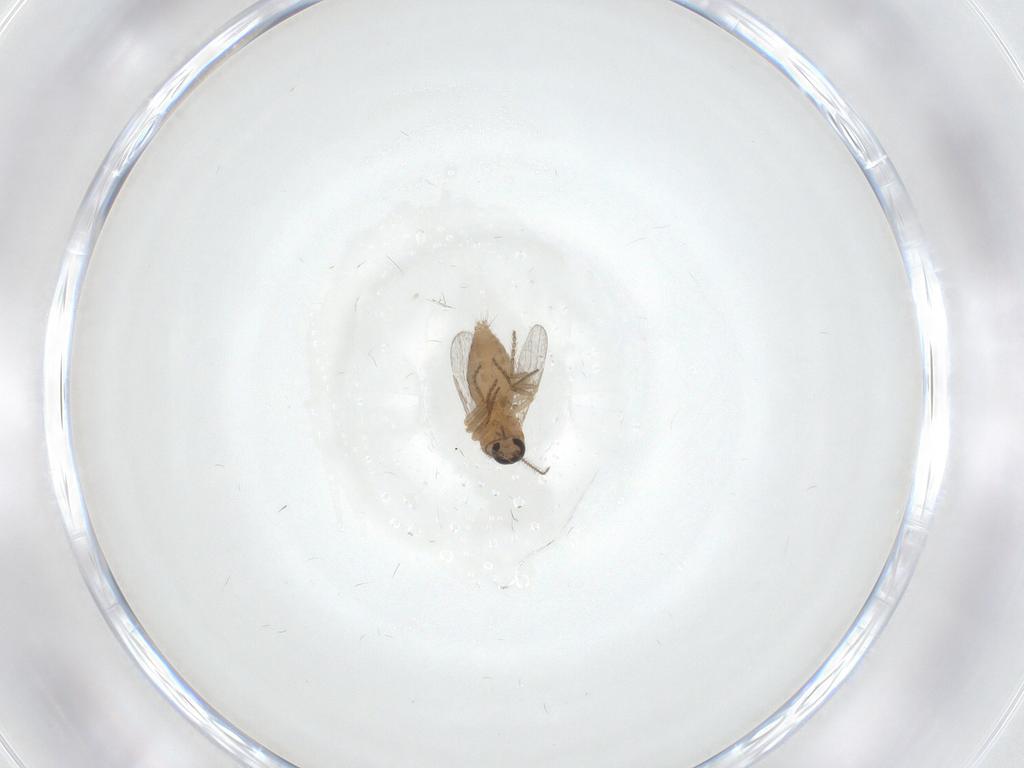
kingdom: Animalia
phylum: Arthropoda
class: Insecta
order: Diptera
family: Ceratopogonidae
